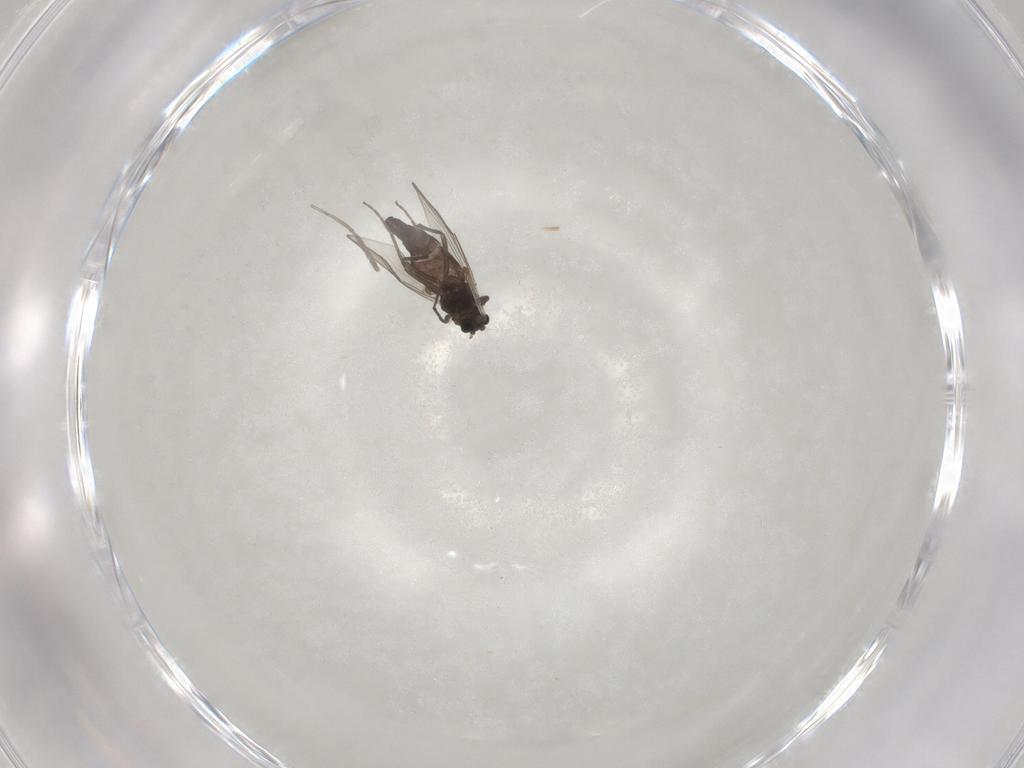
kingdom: Animalia
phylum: Arthropoda
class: Insecta
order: Diptera
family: Chironomidae
